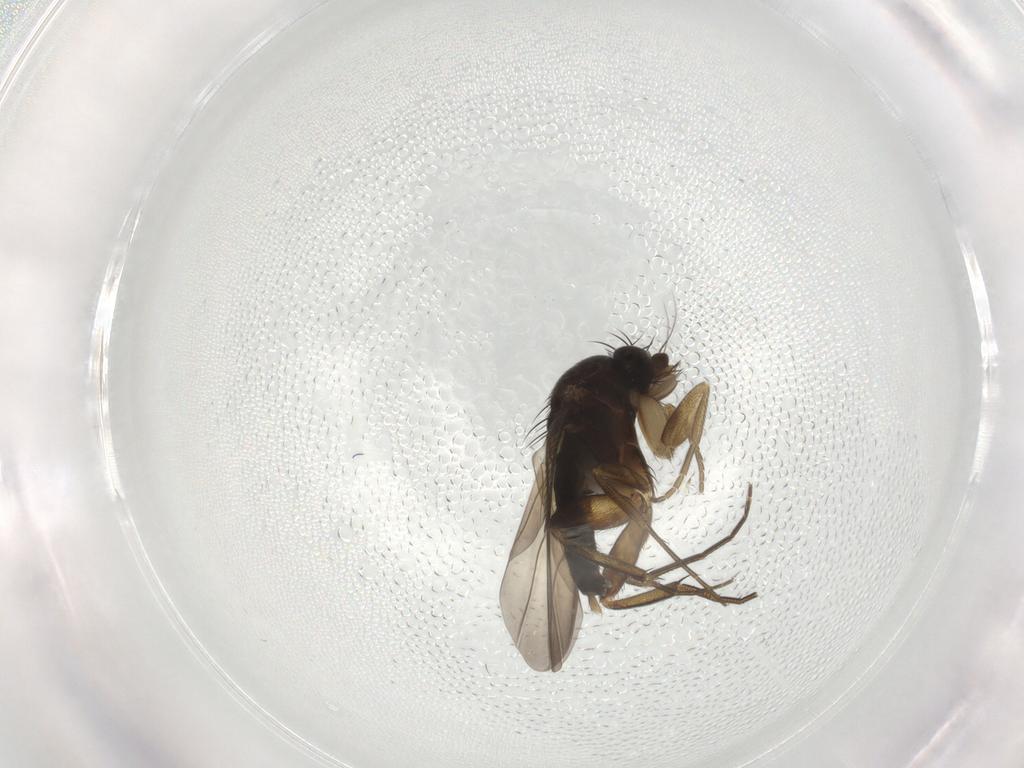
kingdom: Animalia
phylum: Arthropoda
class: Insecta
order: Diptera
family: Phoridae
